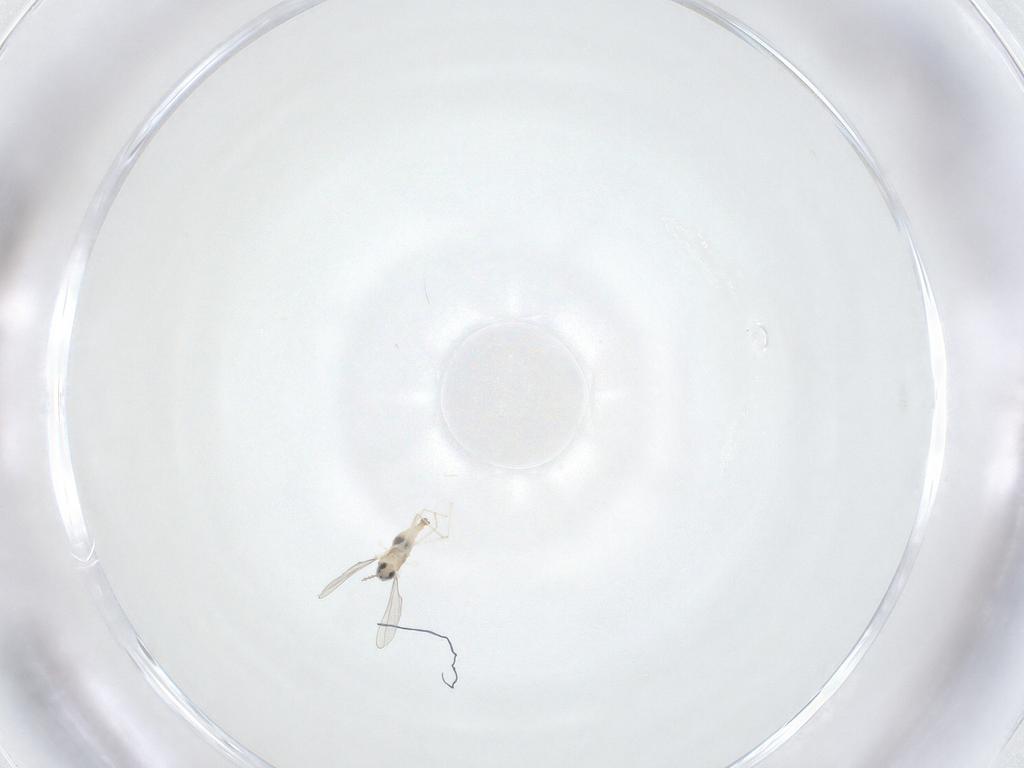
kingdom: Animalia
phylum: Arthropoda
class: Insecta
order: Diptera
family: Cecidomyiidae
